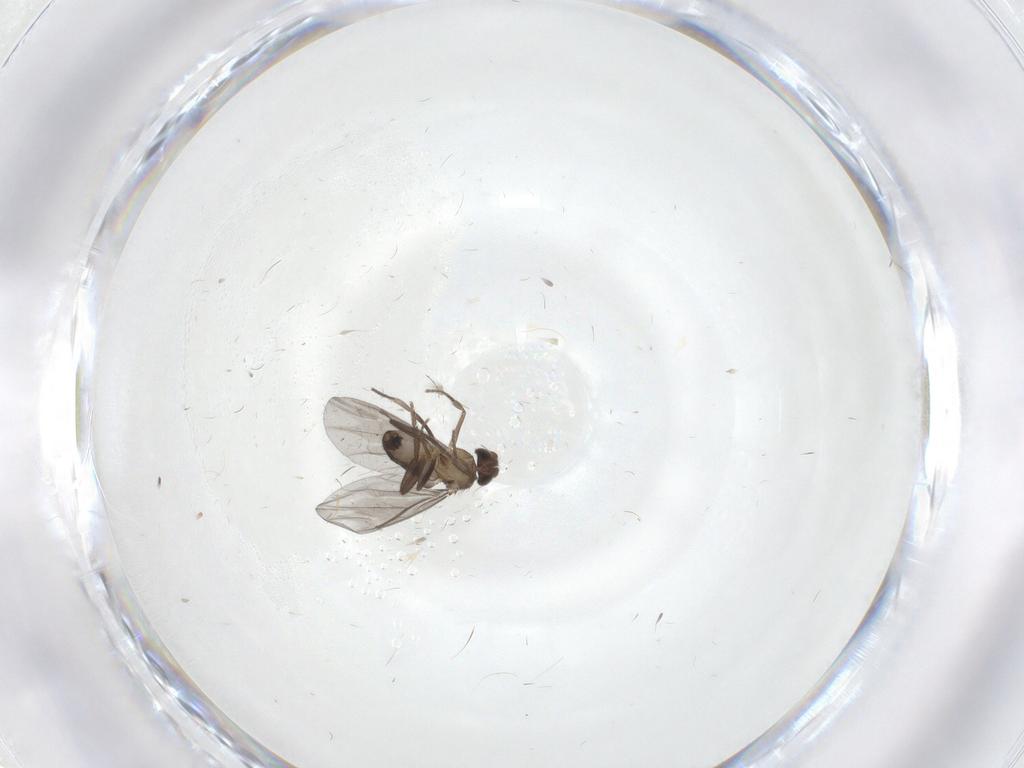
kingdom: Animalia
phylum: Arthropoda
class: Insecta
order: Diptera
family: Phoridae
